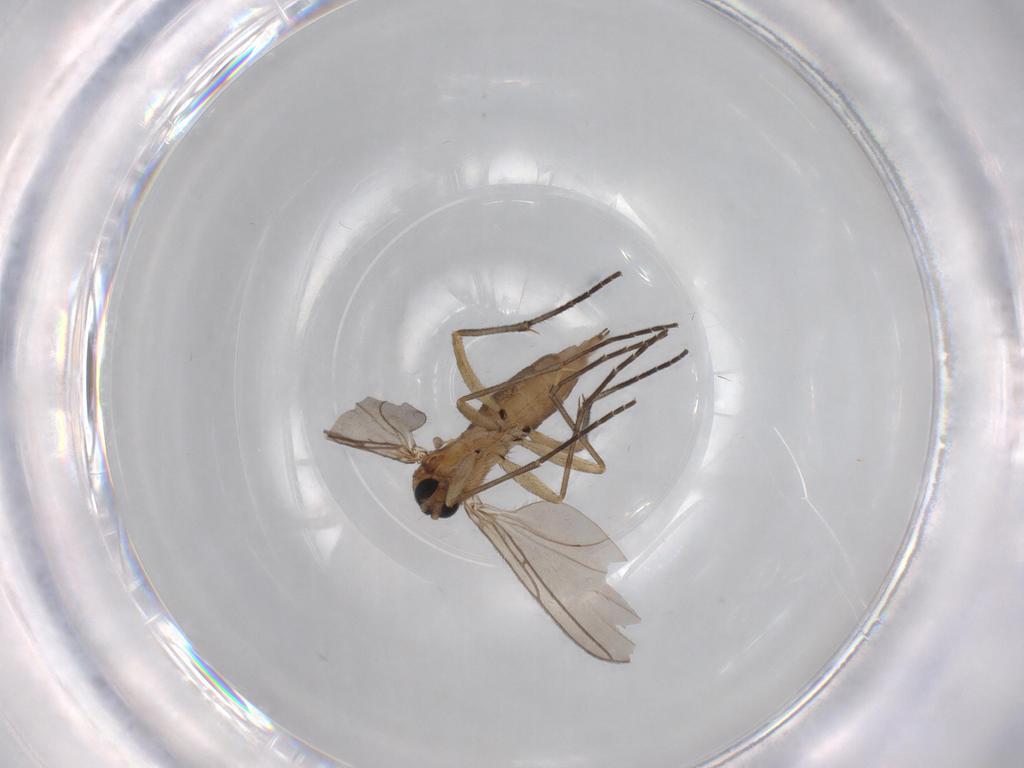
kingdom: Animalia
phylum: Arthropoda
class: Insecta
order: Diptera
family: Sciaridae
